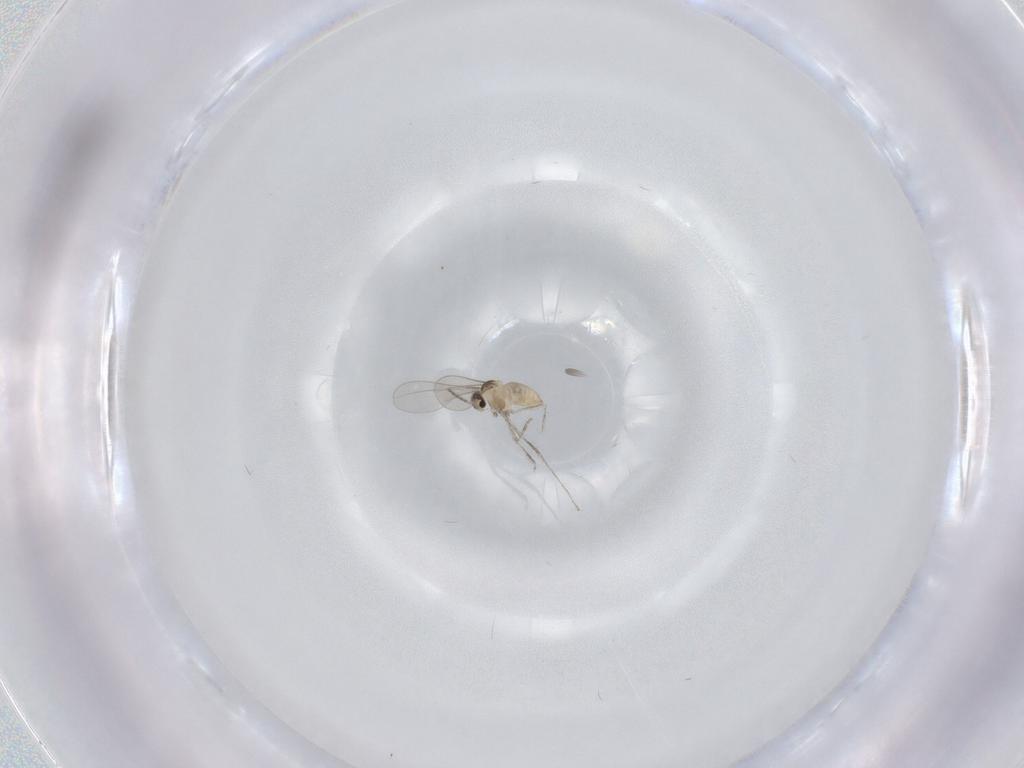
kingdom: Animalia
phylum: Arthropoda
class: Insecta
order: Diptera
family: Cecidomyiidae
